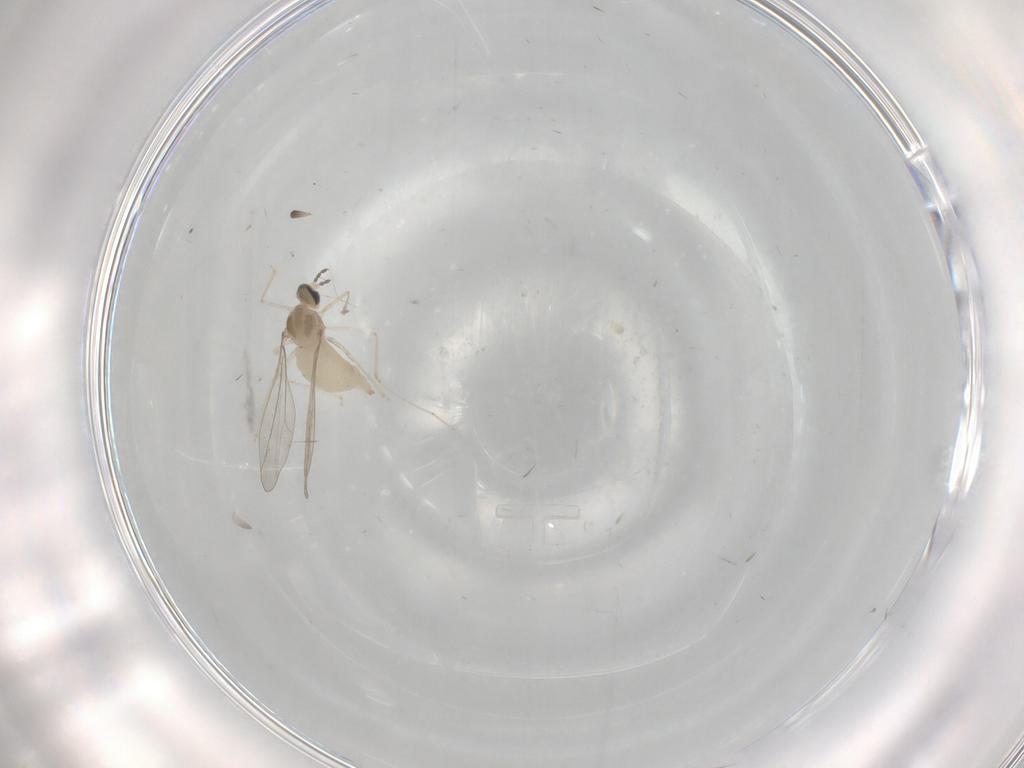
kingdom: Animalia
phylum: Arthropoda
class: Insecta
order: Diptera
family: Cecidomyiidae
